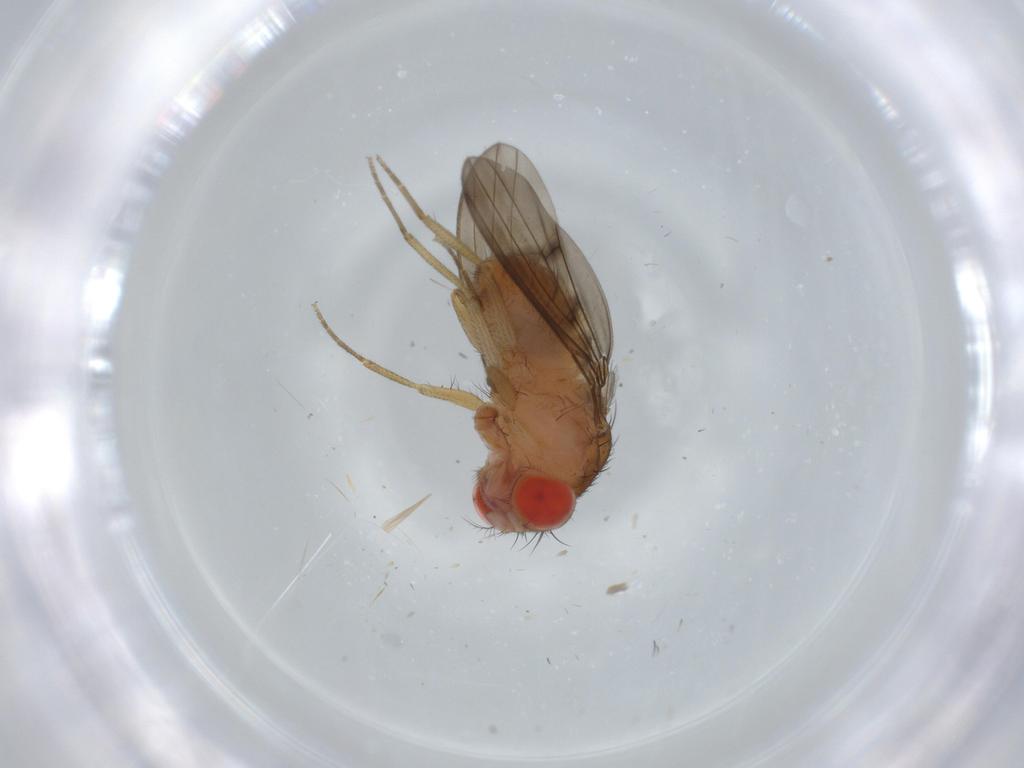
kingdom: Animalia
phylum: Arthropoda
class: Insecta
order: Diptera
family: Drosophilidae
